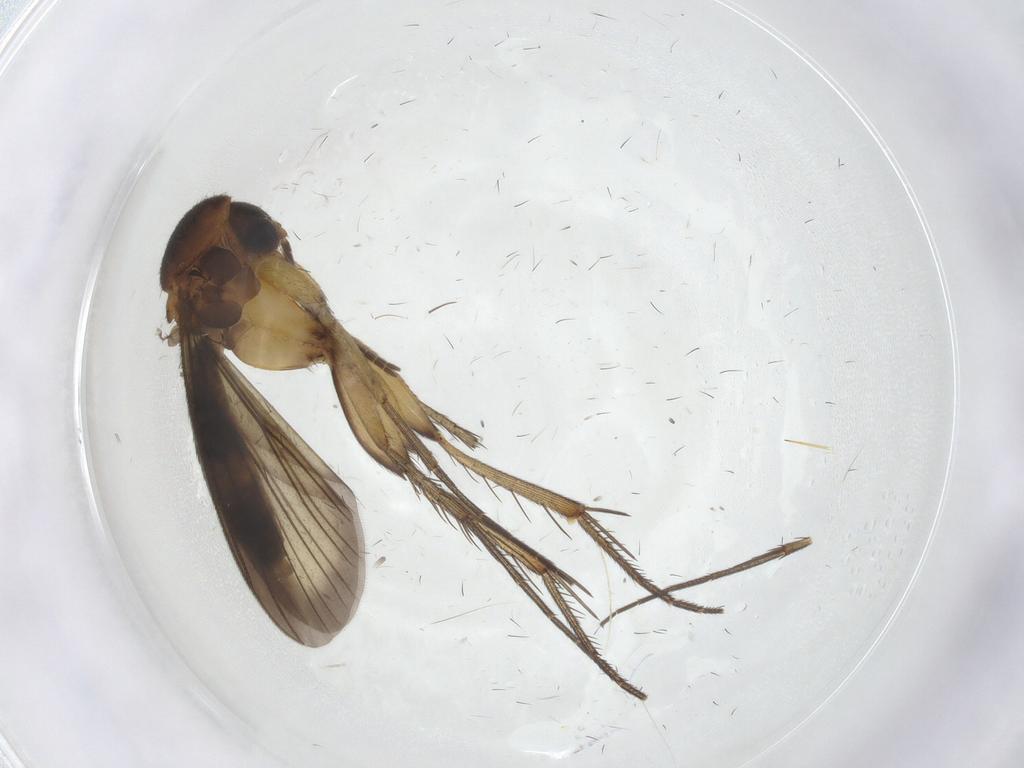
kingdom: Animalia
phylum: Arthropoda
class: Insecta
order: Diptera
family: Mycetophilidae
